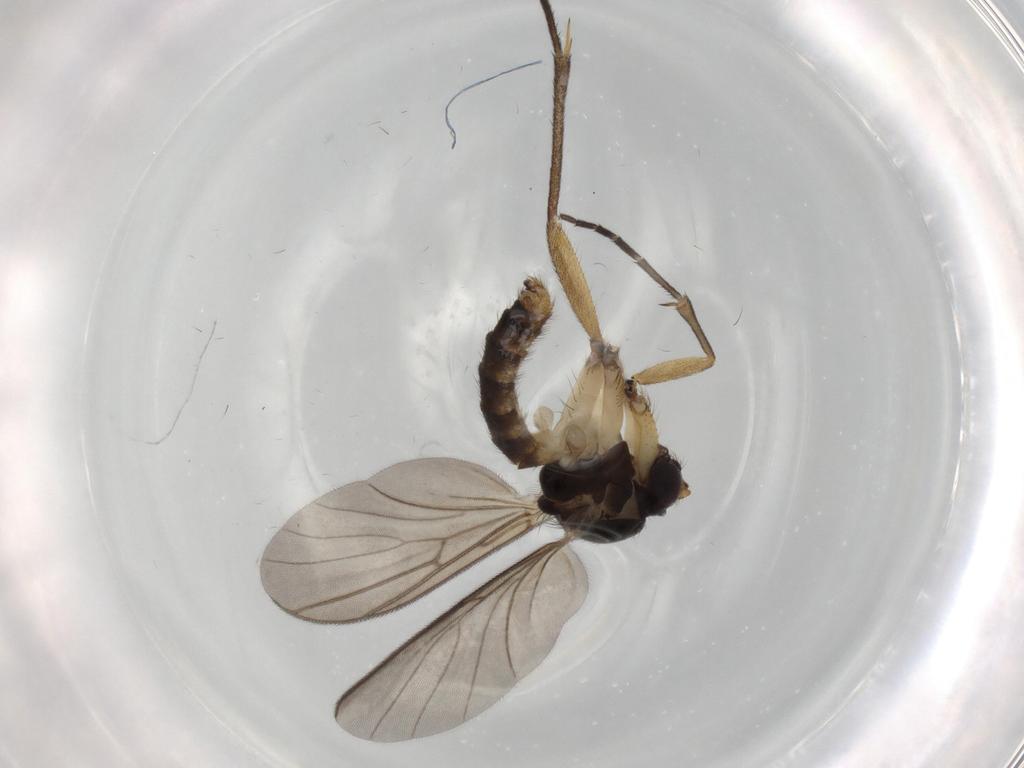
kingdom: Animalia
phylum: Arthropoda
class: Insecta
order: Diptera
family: Cecidomyiidae
